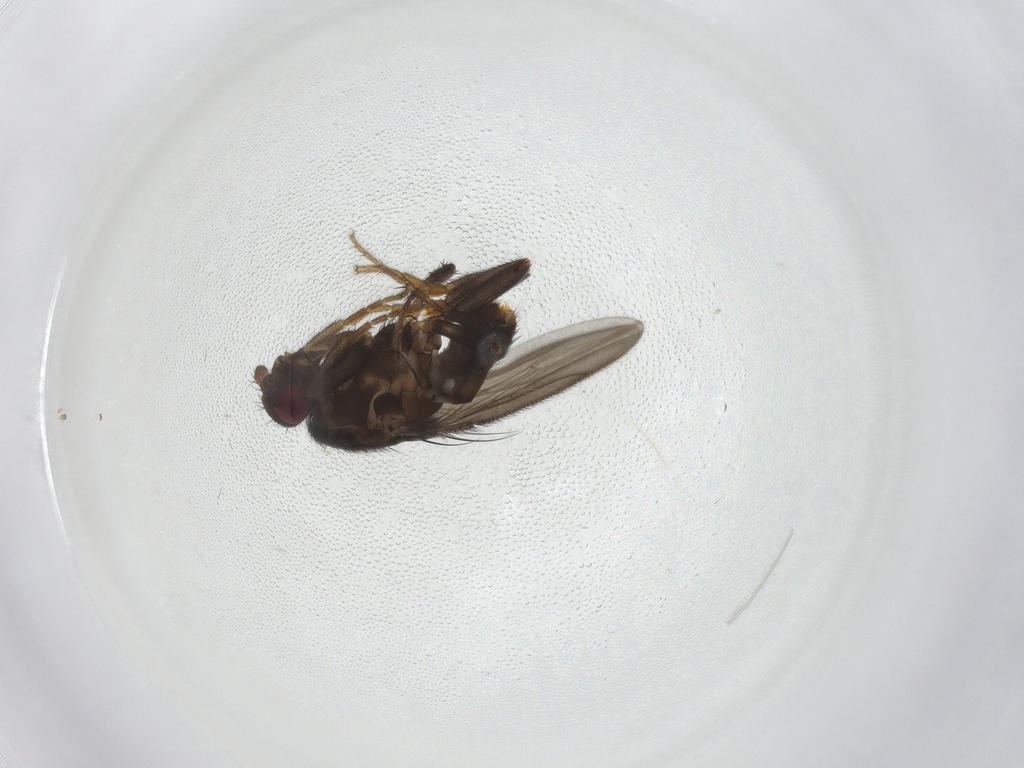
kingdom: Animalia
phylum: Arthropoda
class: Insecta
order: Diptera
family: Sphaeroceridae
